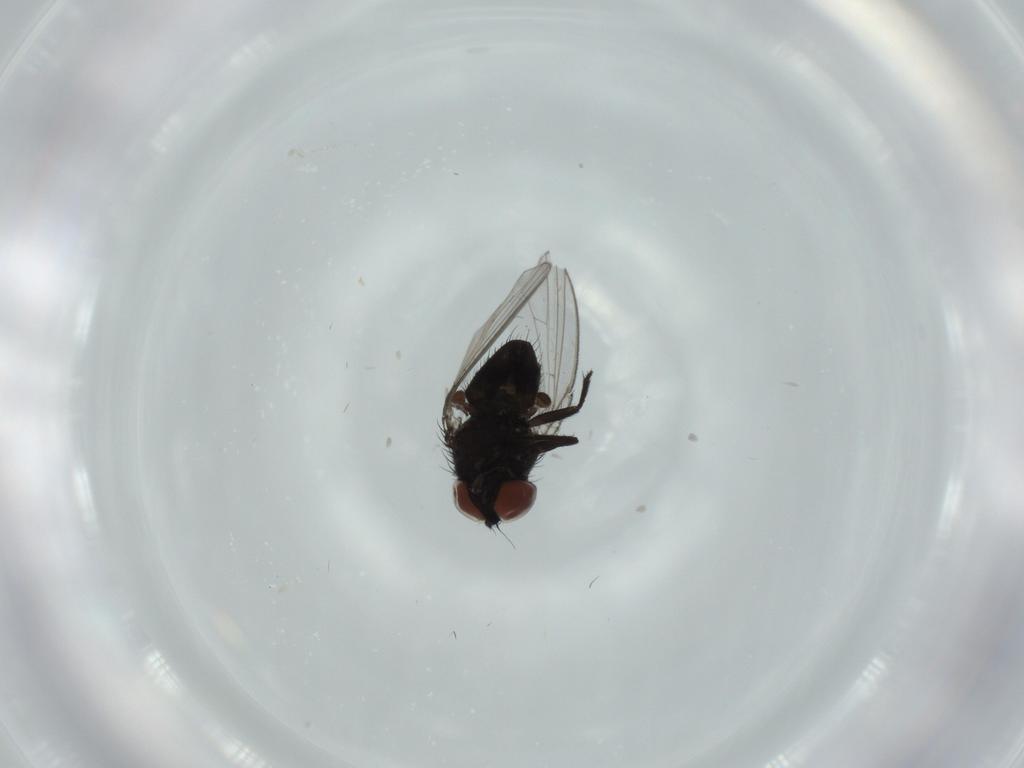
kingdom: Animalia
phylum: Arthropoda
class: Insecta
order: Diptera
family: Milichiidae
